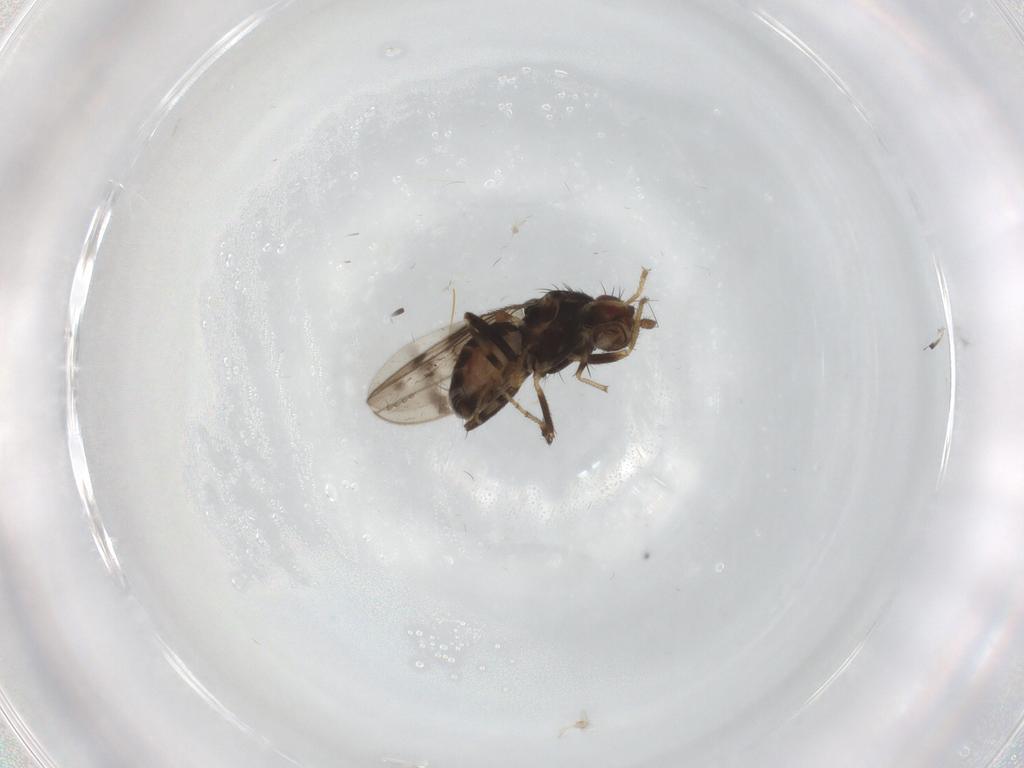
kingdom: Animalia
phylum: Arthropoda
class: Insecta
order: Diptera
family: Sphaeroceridae
